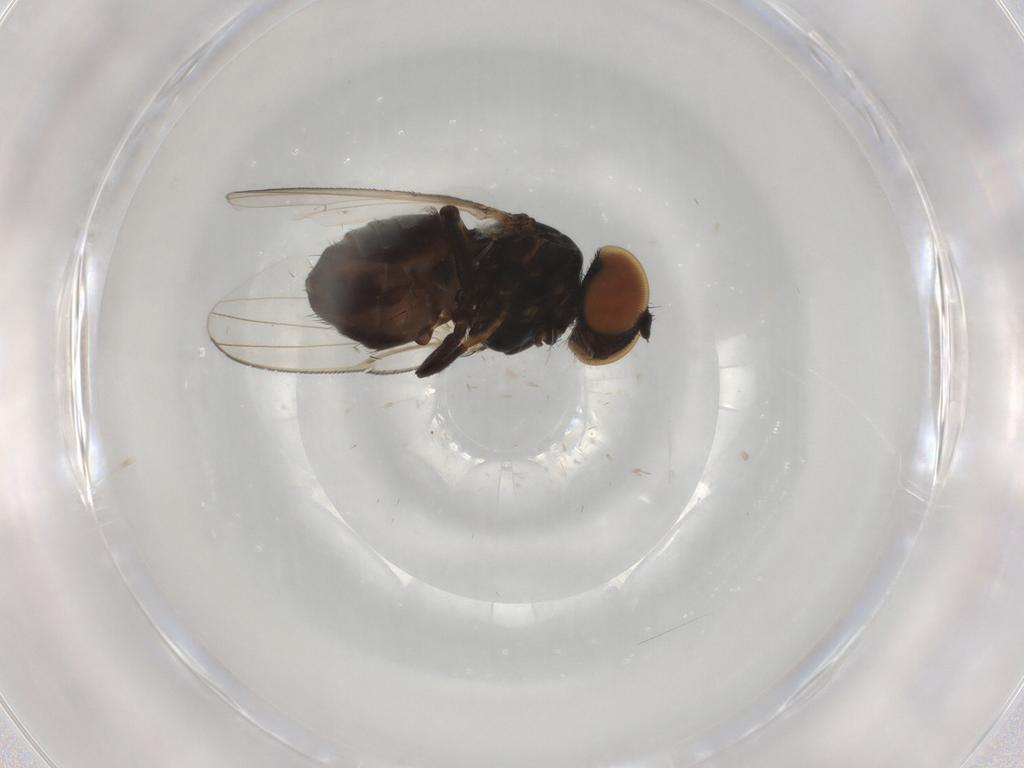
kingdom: Animalia
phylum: Arthropoda
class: Insecta
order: Diptera
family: Milichiidae
